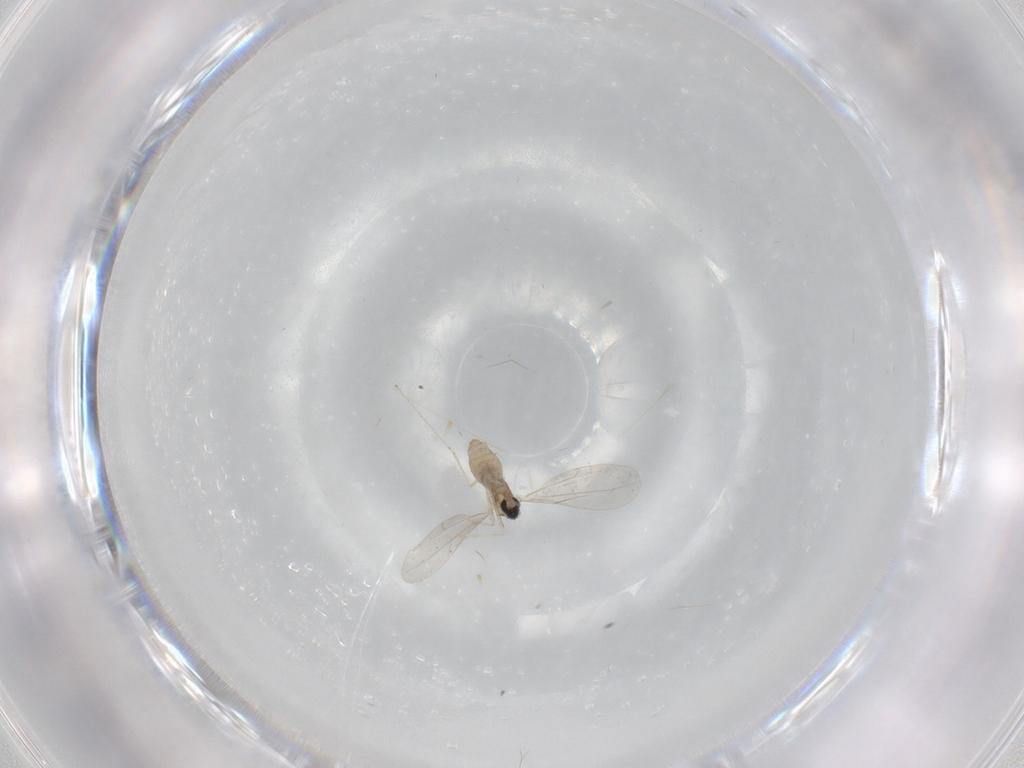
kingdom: Animalia
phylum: Arthropoda
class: Insecta
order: Diptera
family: Cecidomyiidae
